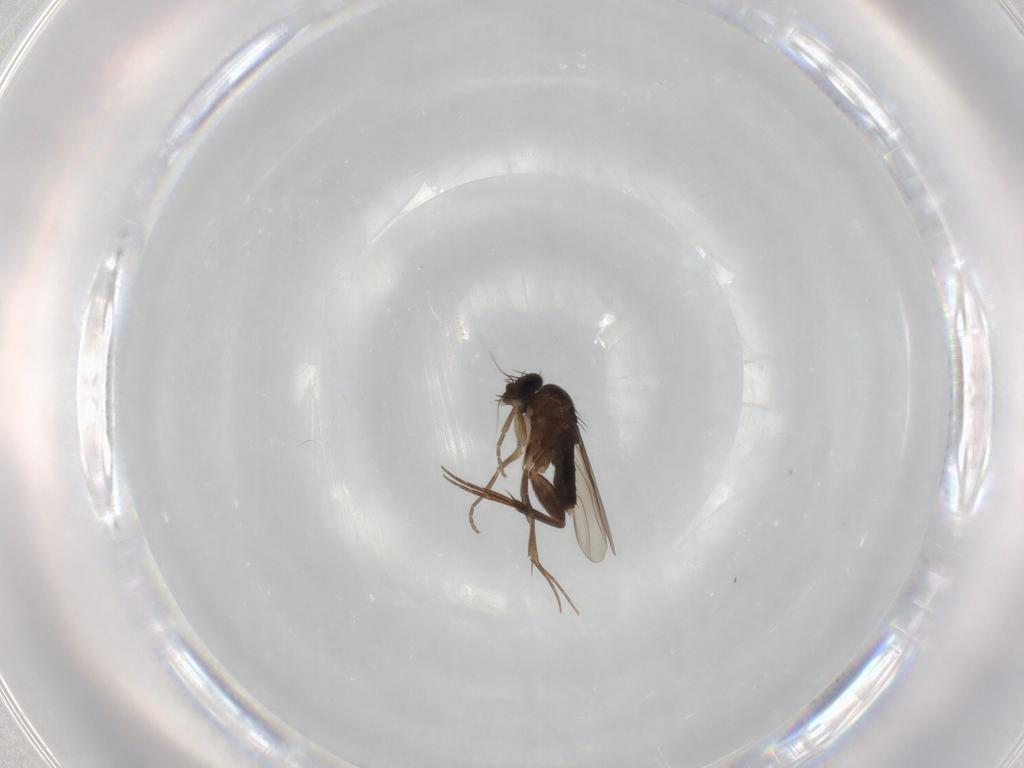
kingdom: Animalia
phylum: Arthropoda
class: Insecta
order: Diptera
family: Phoridae
